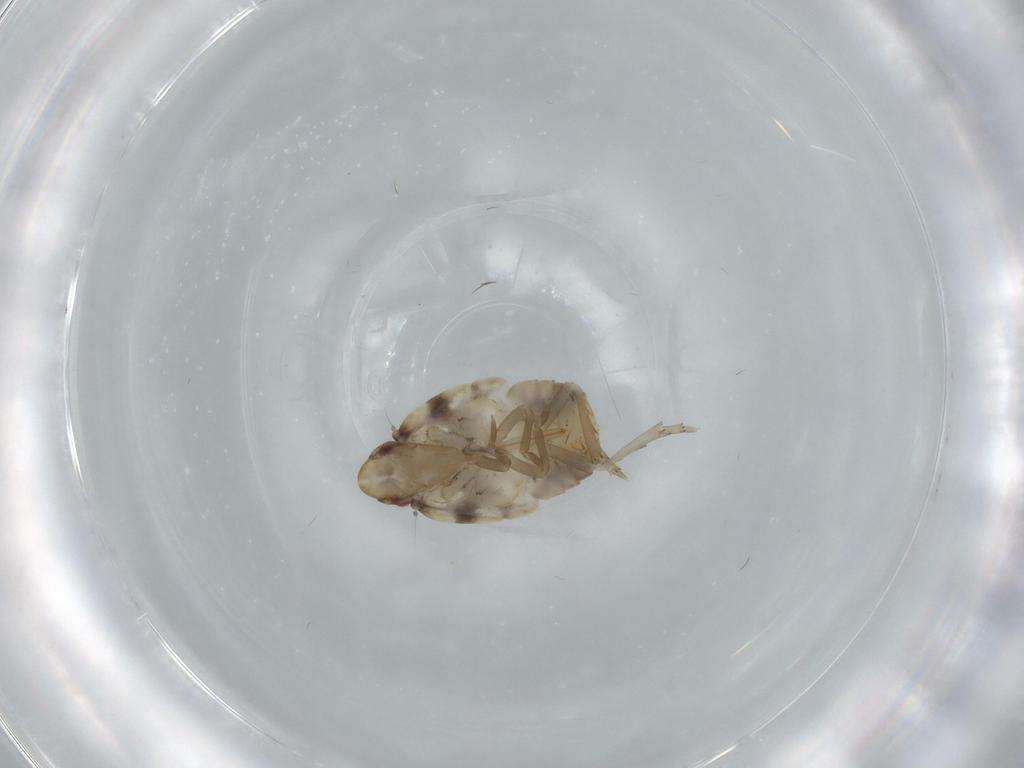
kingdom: Animalia
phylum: Arthropoda
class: Insecta
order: Hemiptera
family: Flatidae
